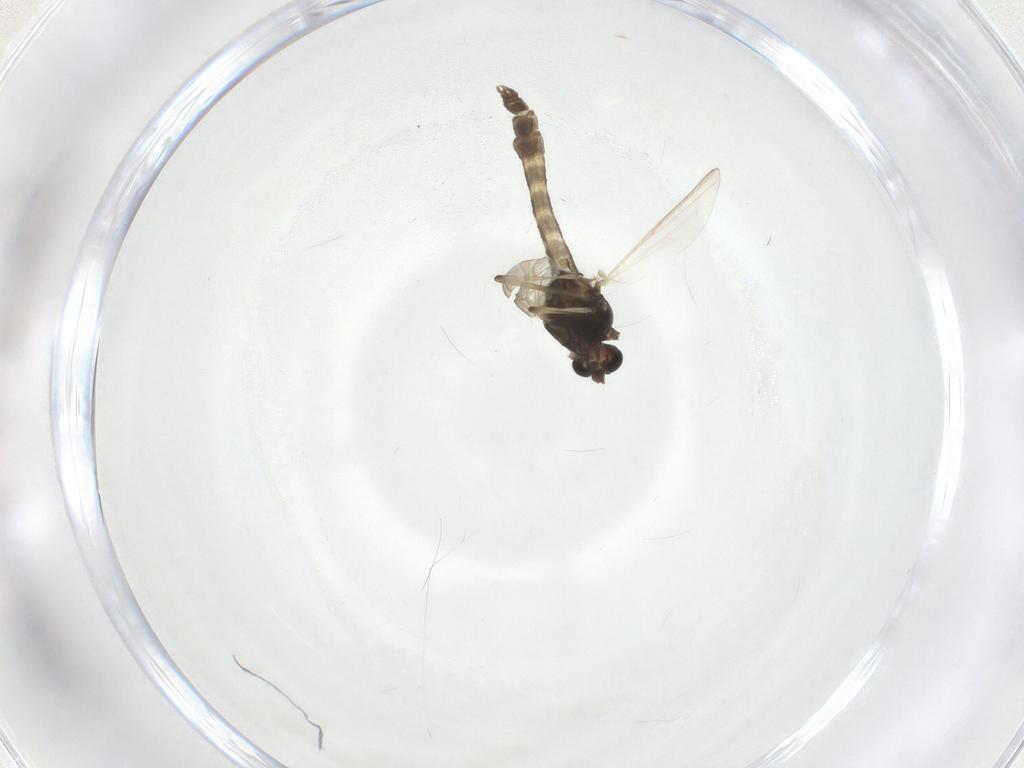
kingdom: Animalia
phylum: Arthropoda
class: Insecta
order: Diptera
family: Chironomidae
